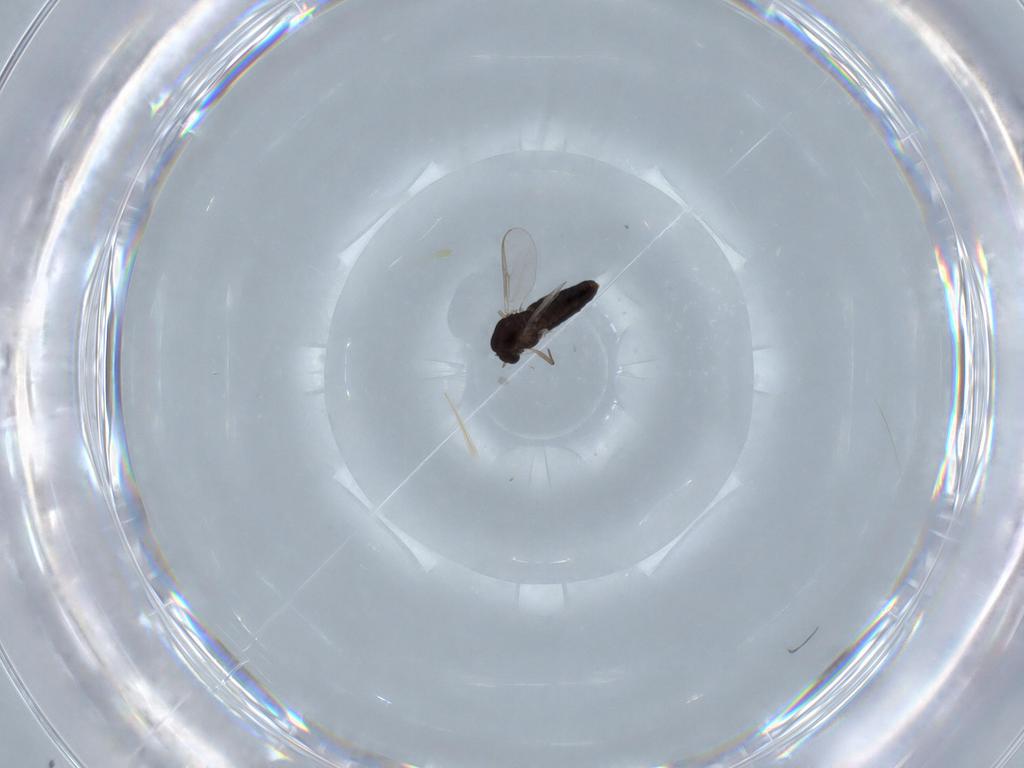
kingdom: Animalia
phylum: Arthropoda
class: Insecta
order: Diptera
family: Chironomidae
